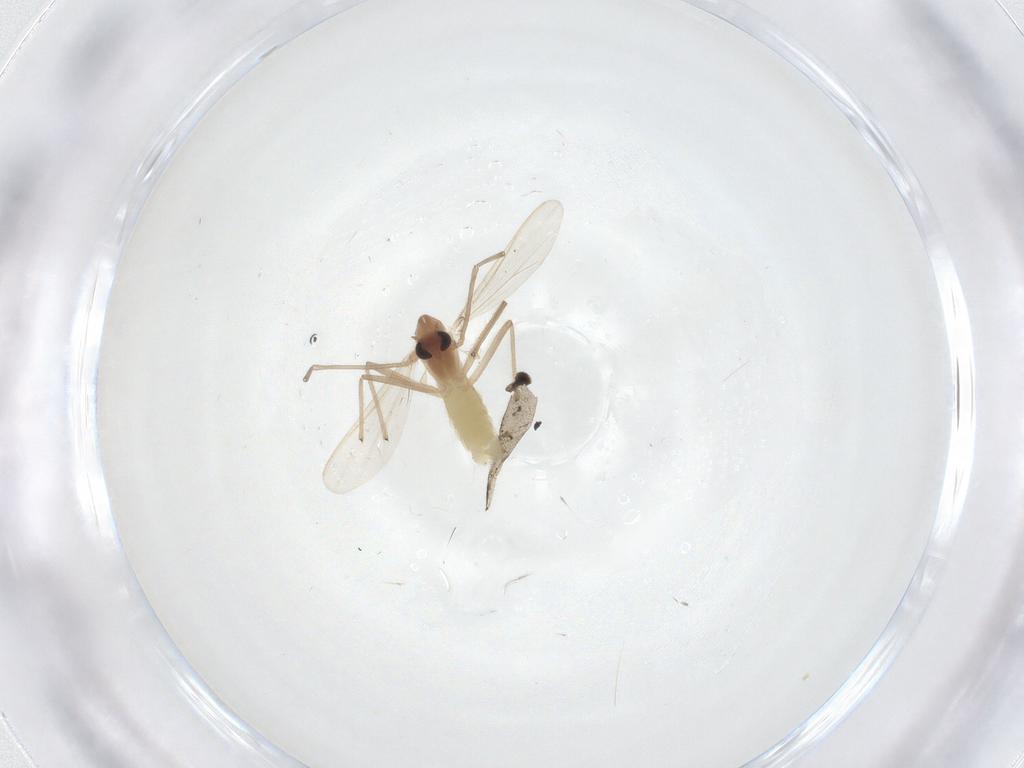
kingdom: Animalia
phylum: Arthropoda
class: Insecta
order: Diptera
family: Chironomidae
